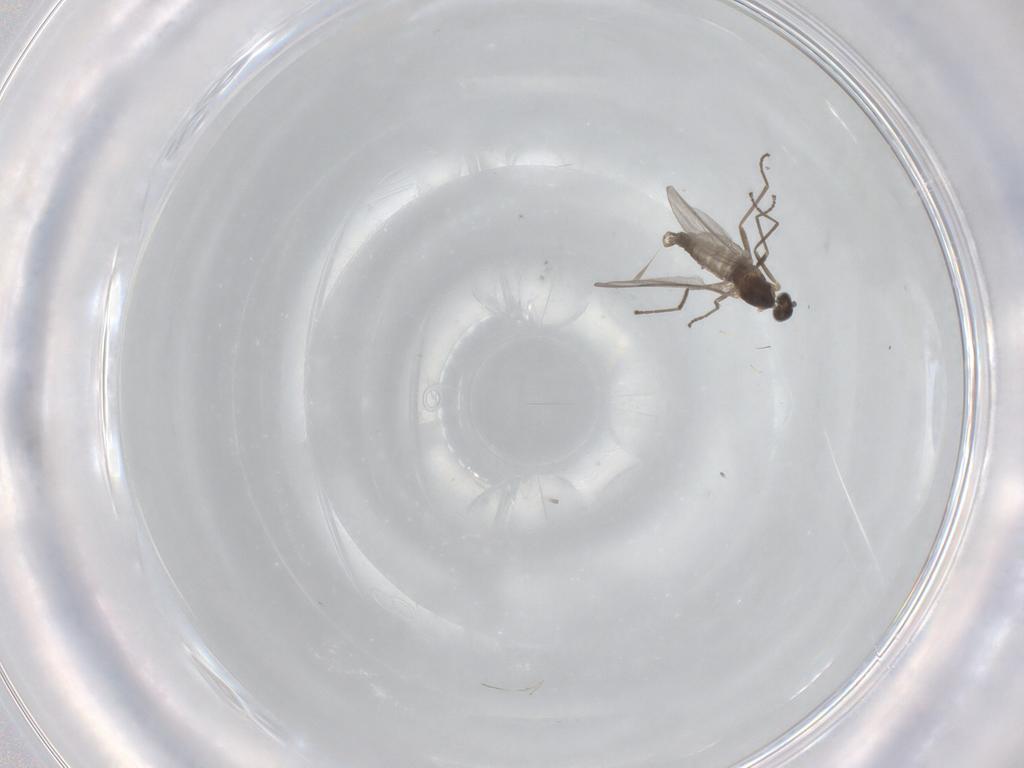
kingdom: Animalia
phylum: Arthropoda
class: Insecta
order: Diptera
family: Cecidomyiidae
